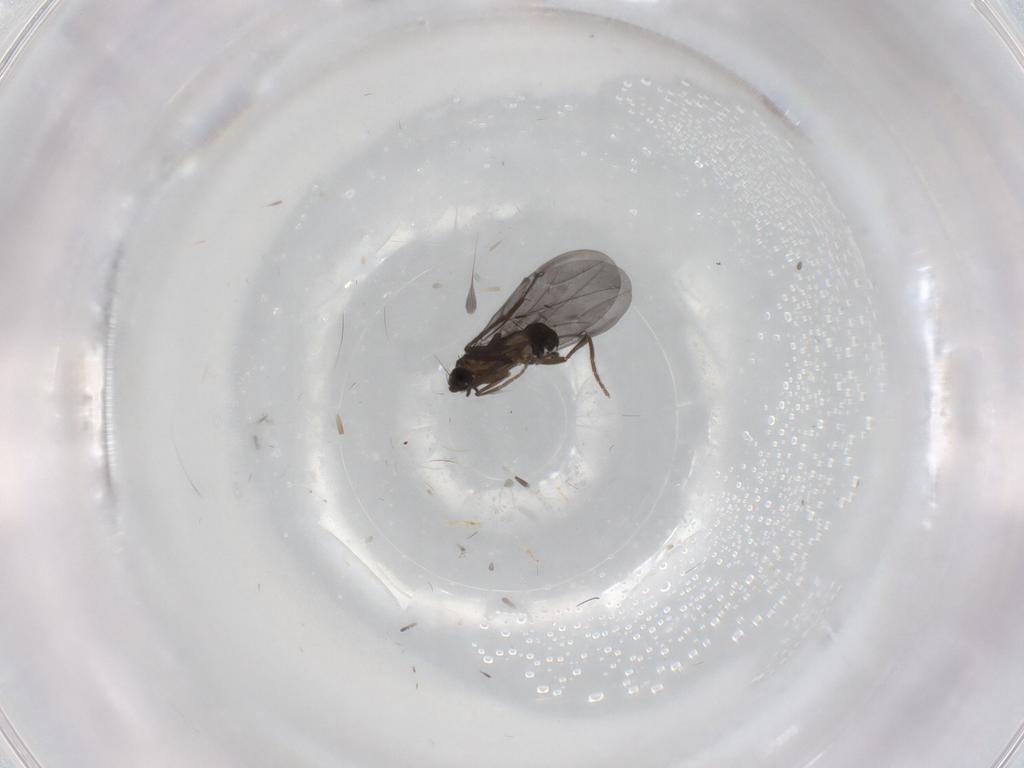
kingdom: Animalia
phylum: Arthropoda
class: Insecta
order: Diptera
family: Phoridae
